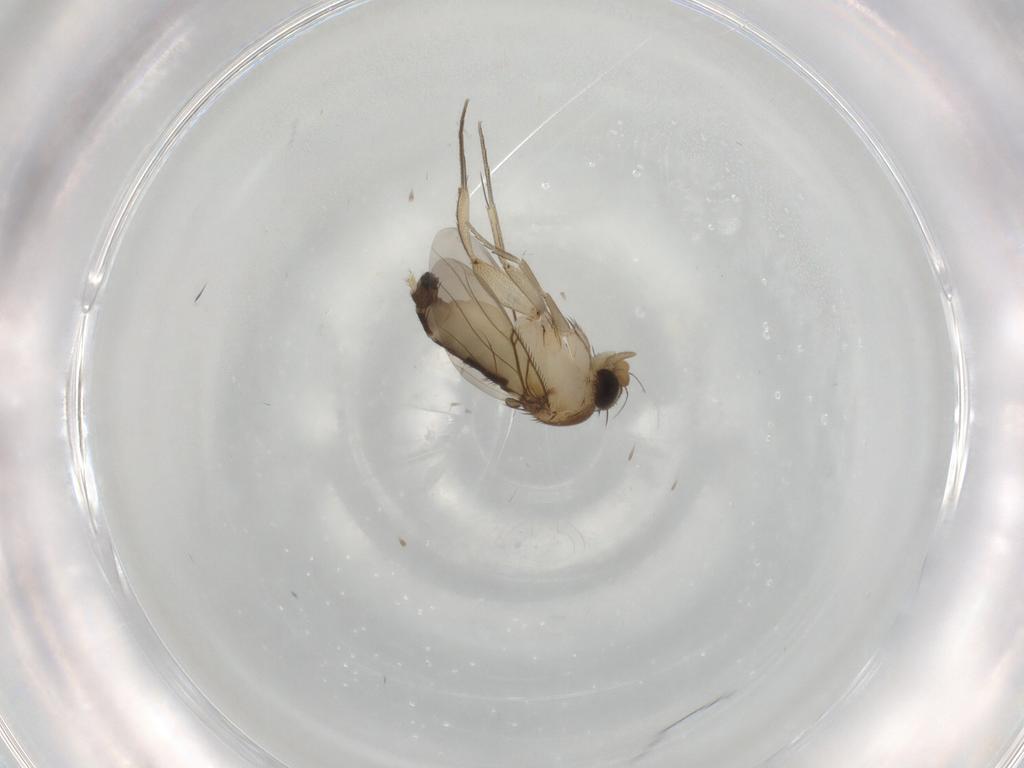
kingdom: Animalia
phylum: Arthropoda
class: Insecta
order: Diptera
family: Phoridae
